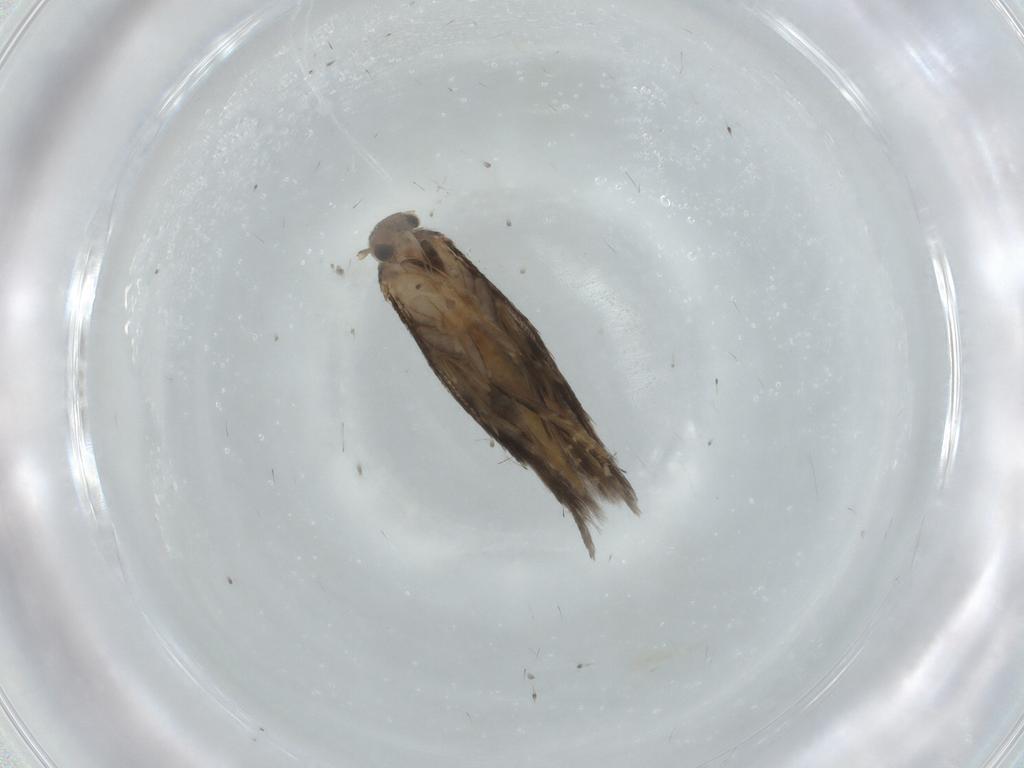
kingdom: Animalia
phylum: Arthropoda
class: Insecta
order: Lepidoptera
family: Elachistidae
